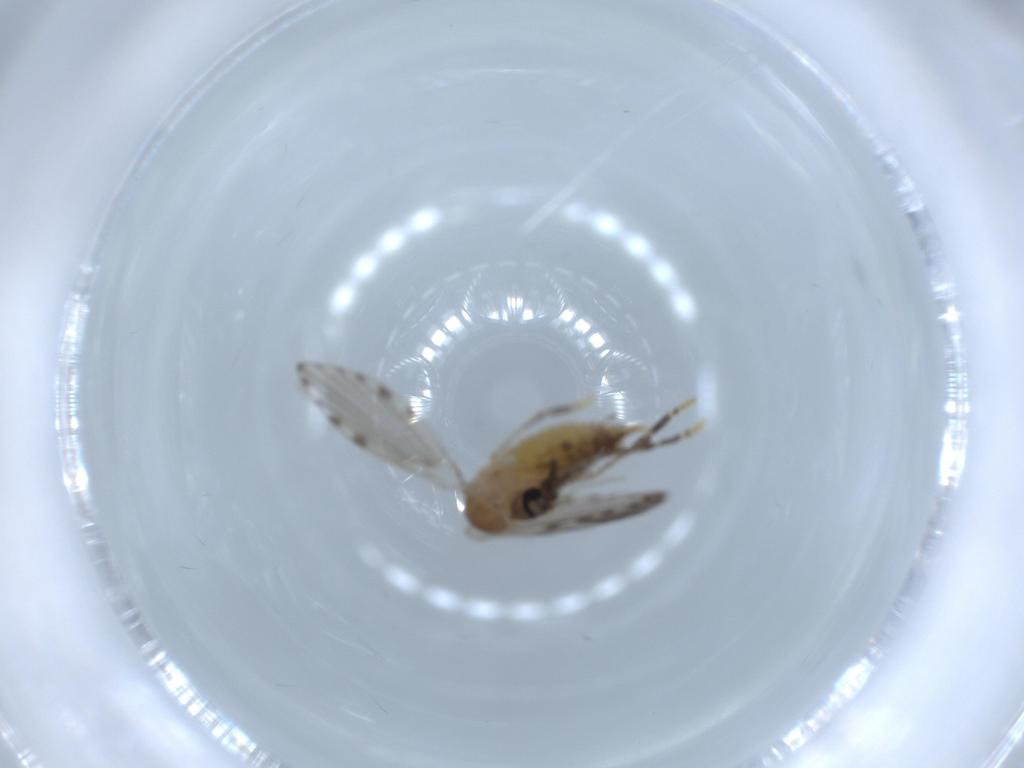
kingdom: Animalia
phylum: Arthropoda
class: Insecta
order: Diptera
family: Psychodidae
